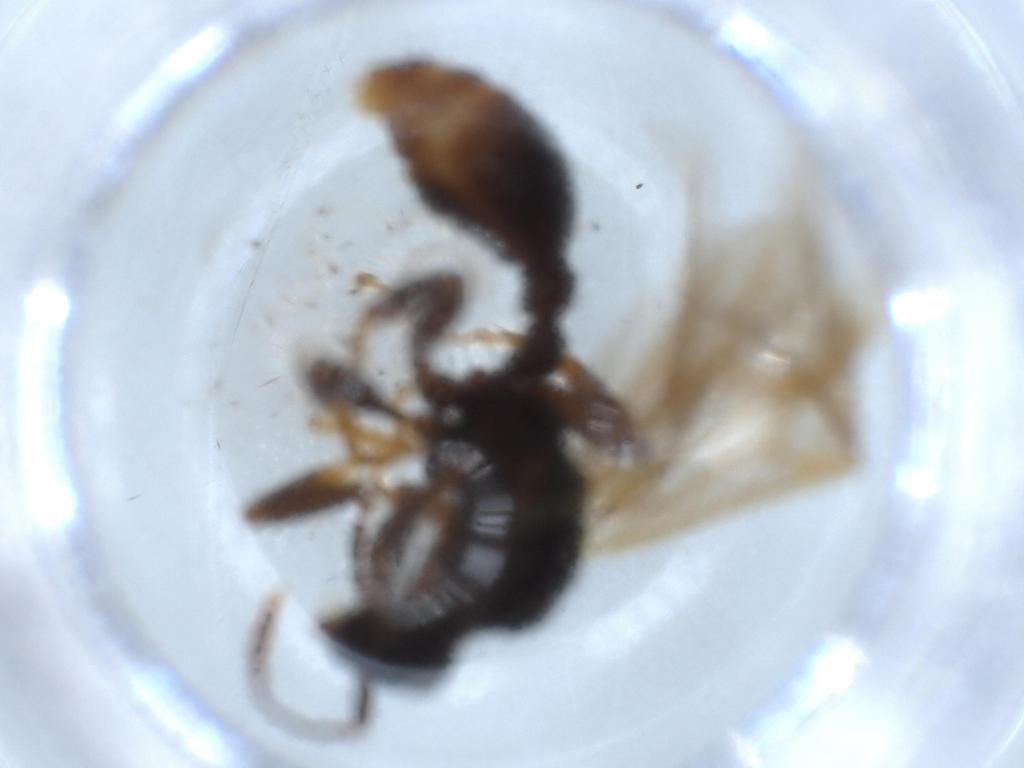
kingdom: Animalia
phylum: Arthropoda
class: Insecta
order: Hymenoptera
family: Formicidae
